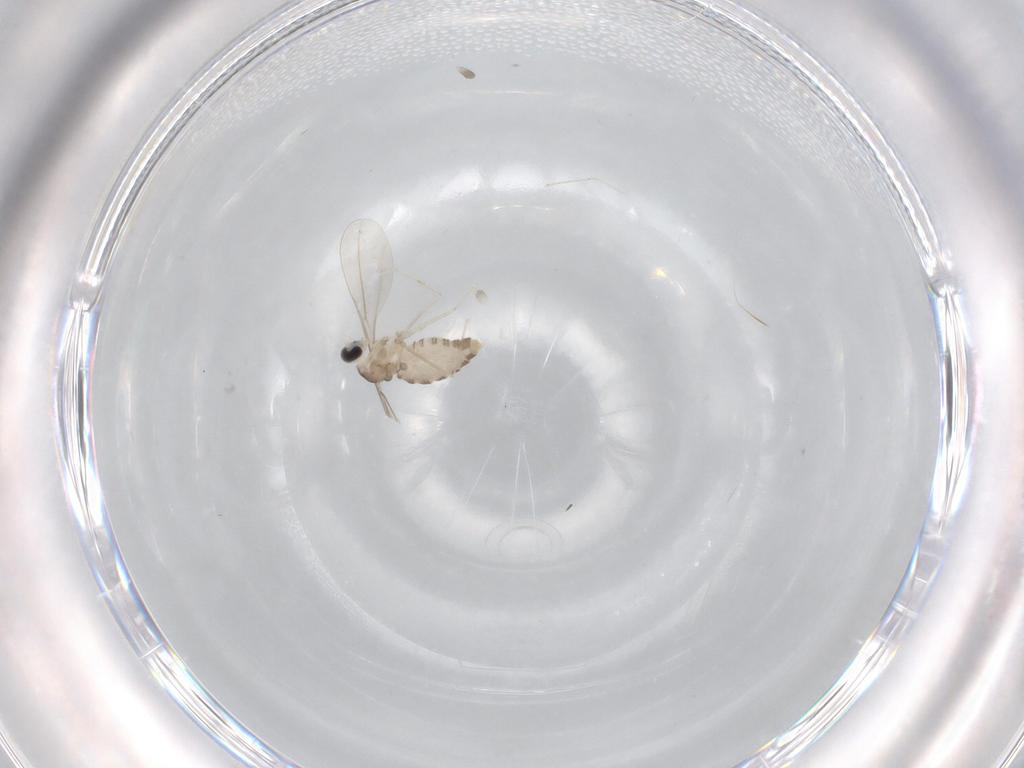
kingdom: Animalia
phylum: Arthropoda
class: Insecta
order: Diptera
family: Cecidomyiidae
